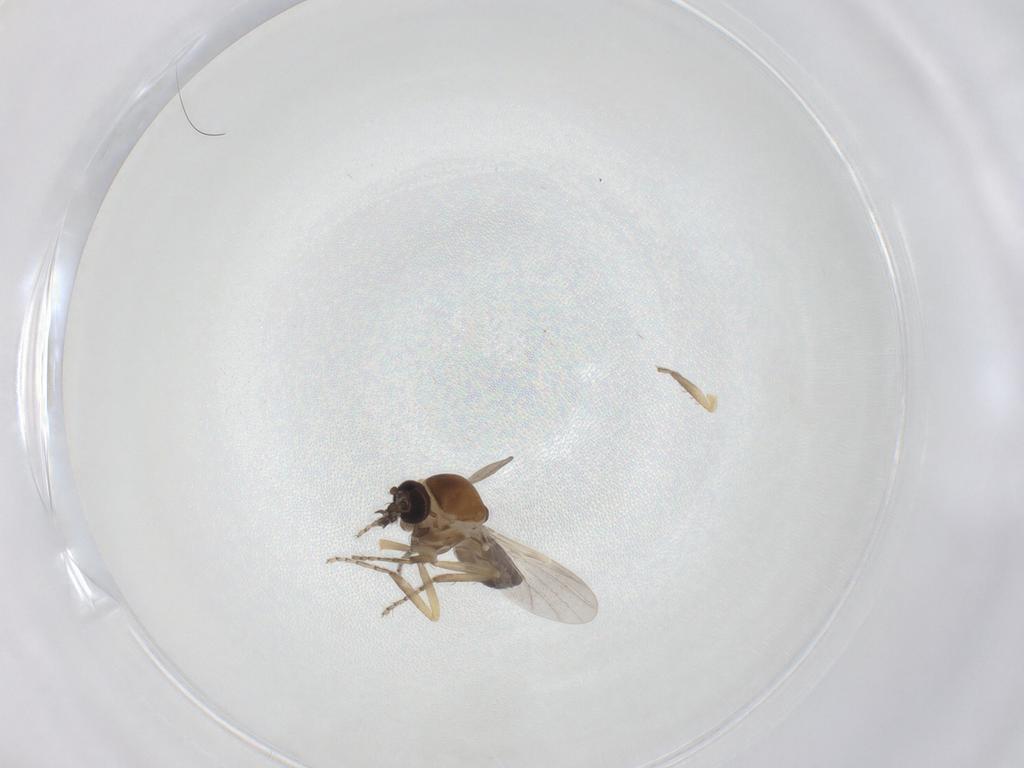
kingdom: Animalia
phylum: Arthropoda
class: Insecta
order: Diptera
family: Ceratopogonidae
